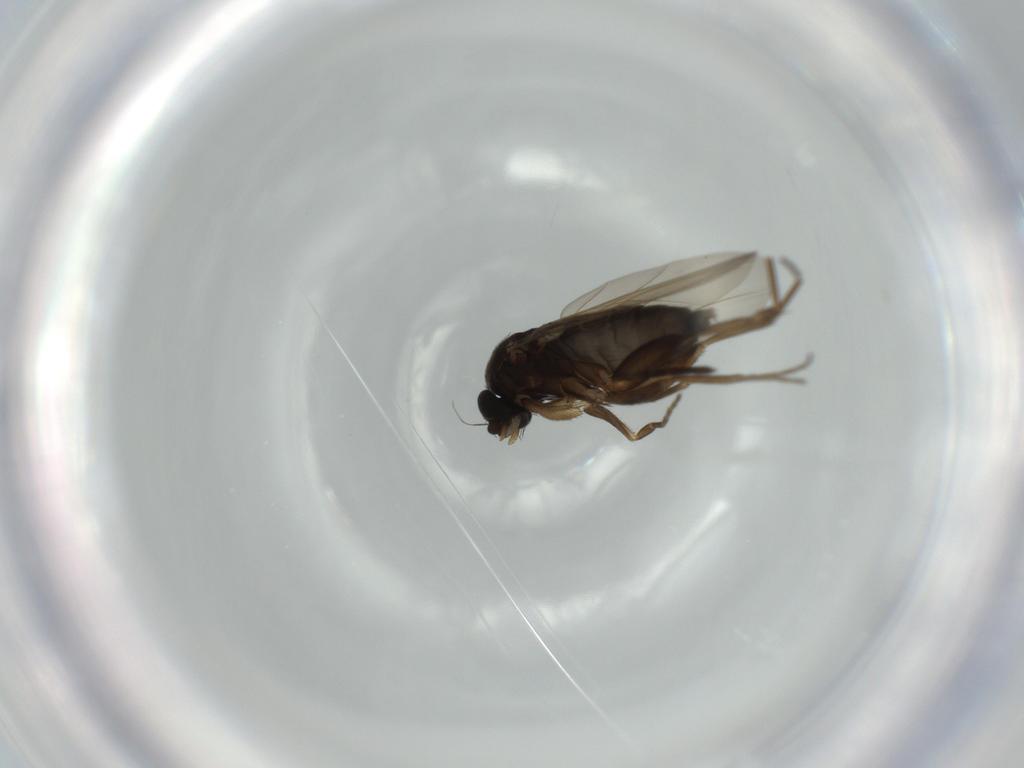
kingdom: Animalia
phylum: Arthropoda
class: Insecta
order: Diptera
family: Phoridae
